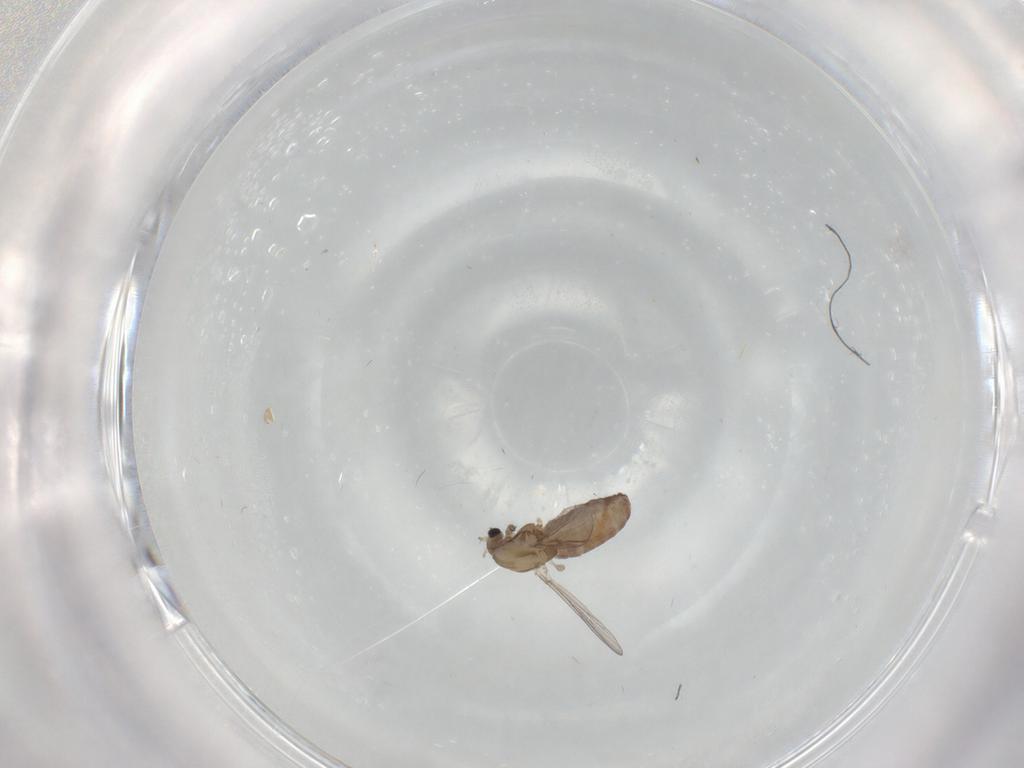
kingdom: Animalia
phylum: Arthropoda
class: Insecta
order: Diptera
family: Chironomidae
